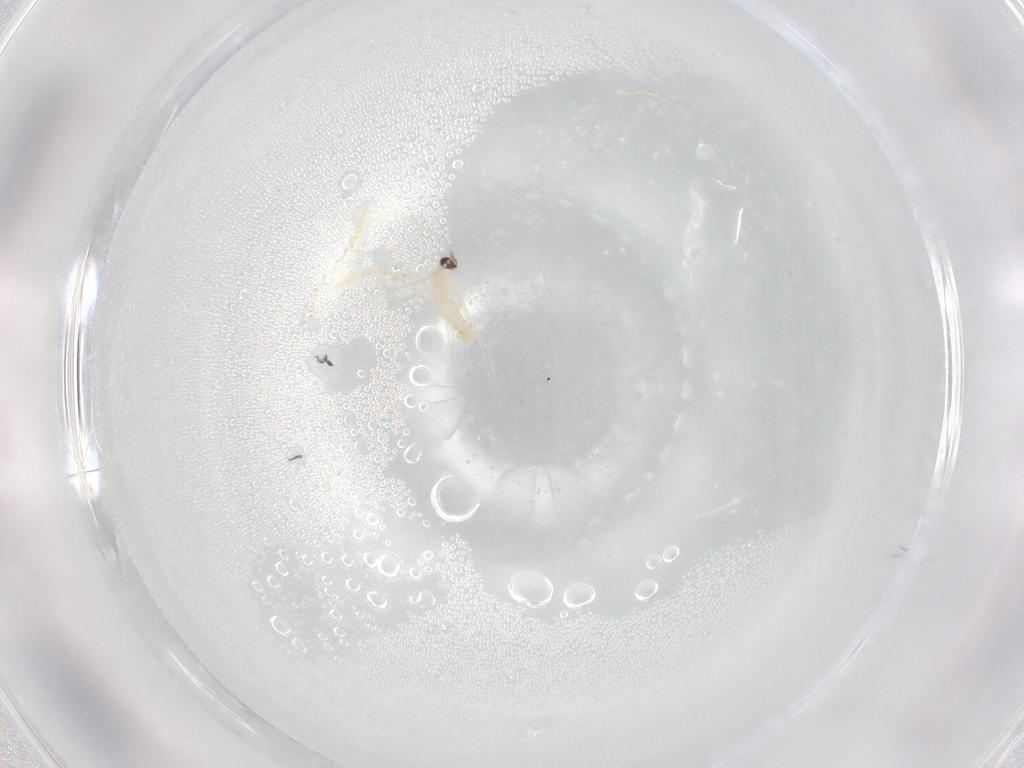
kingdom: Animalia
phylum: Arthropoda
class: Insecta
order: Diptera
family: Cecidomyiidae
